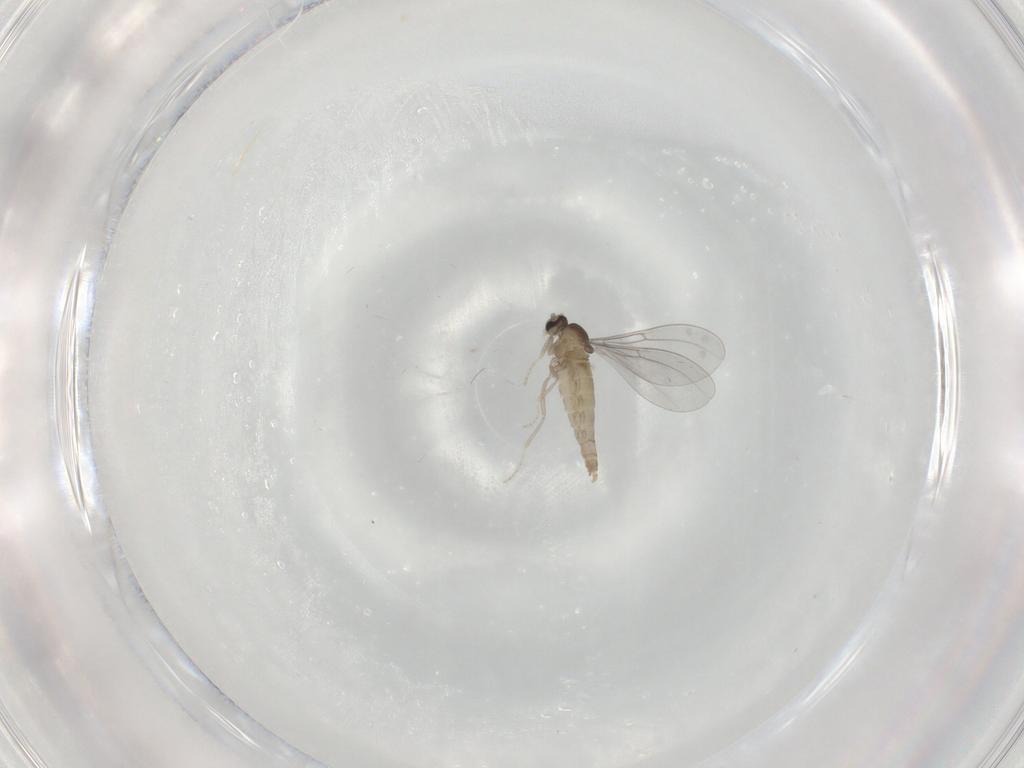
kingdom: Animalia
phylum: Arthropoda
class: Insecta
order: Diptera
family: Cecidomyiidae
